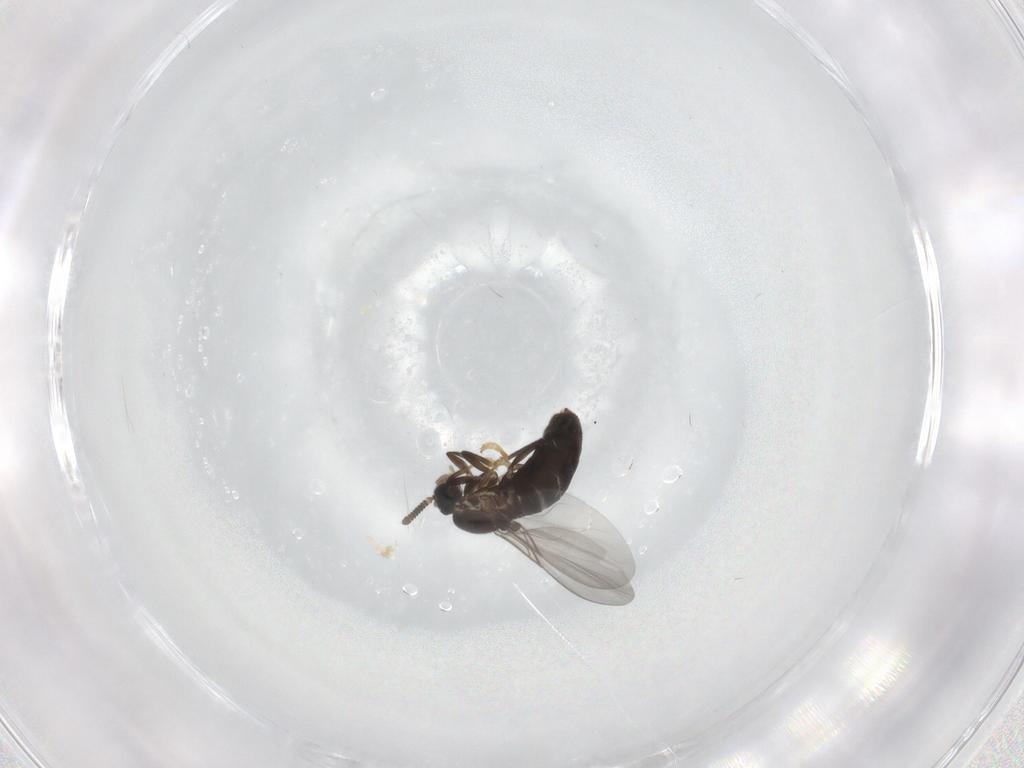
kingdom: Animalia
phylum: Arthropoda
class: Insecta
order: Diptera
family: Scatopsidae
